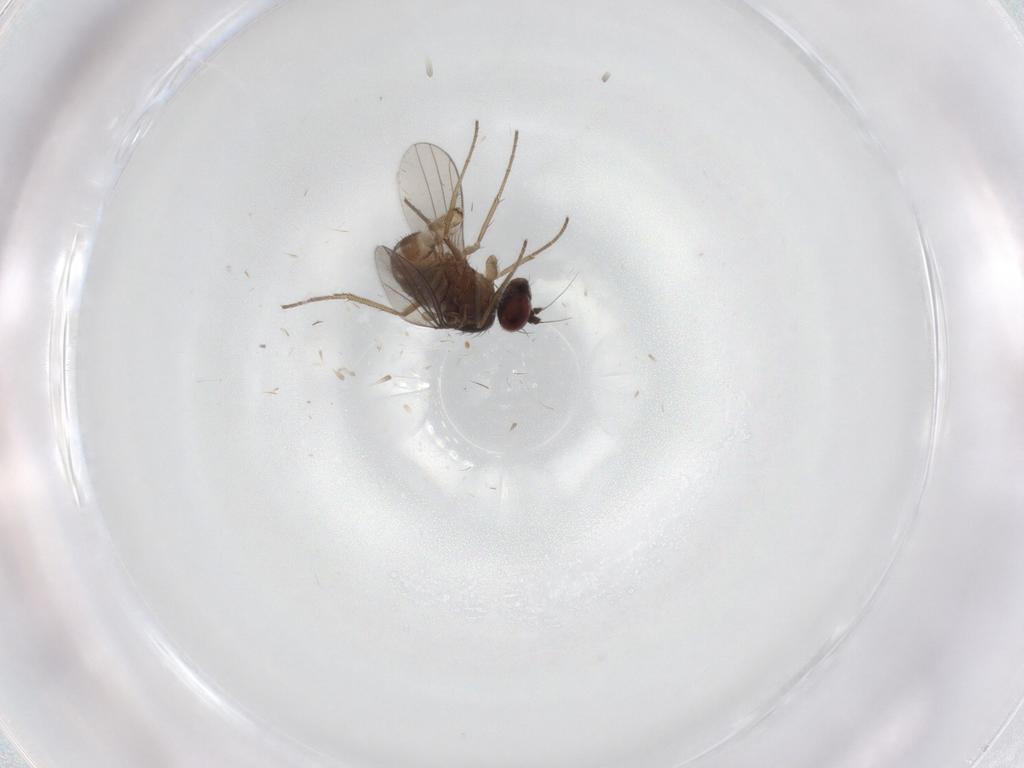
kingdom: Animalia
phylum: Arthropoda
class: Insecta
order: Diptera
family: Dolichopodidae
